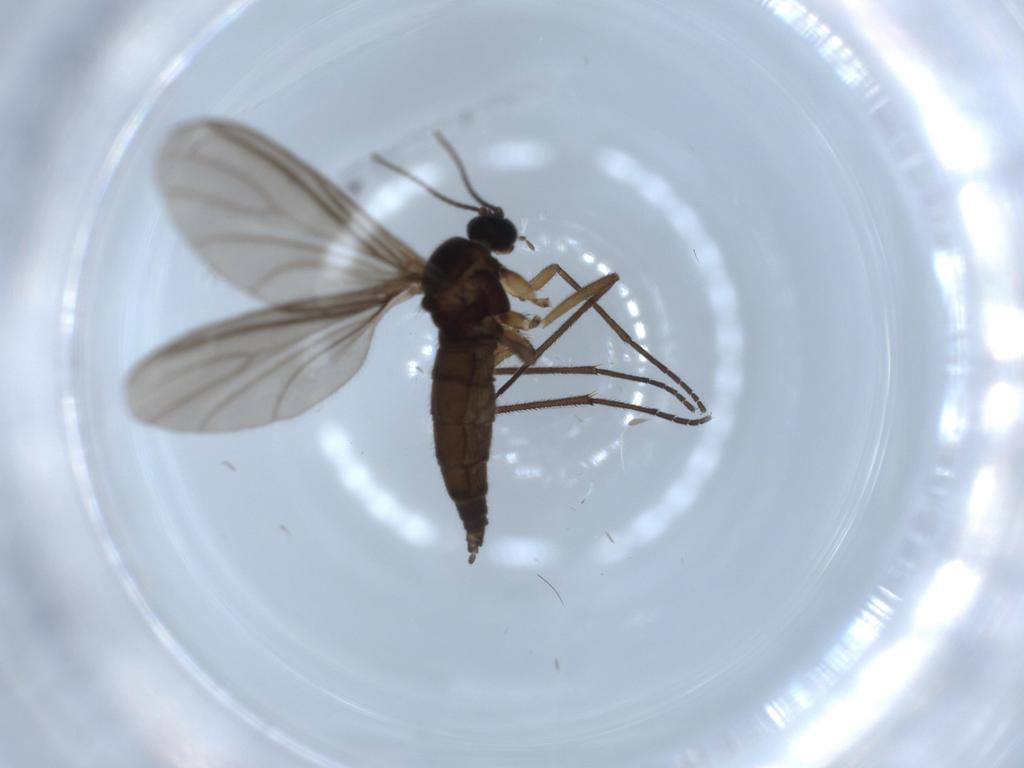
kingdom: Animalia
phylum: Arthropoda
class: Insecta
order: Diptera
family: Sciaridae
